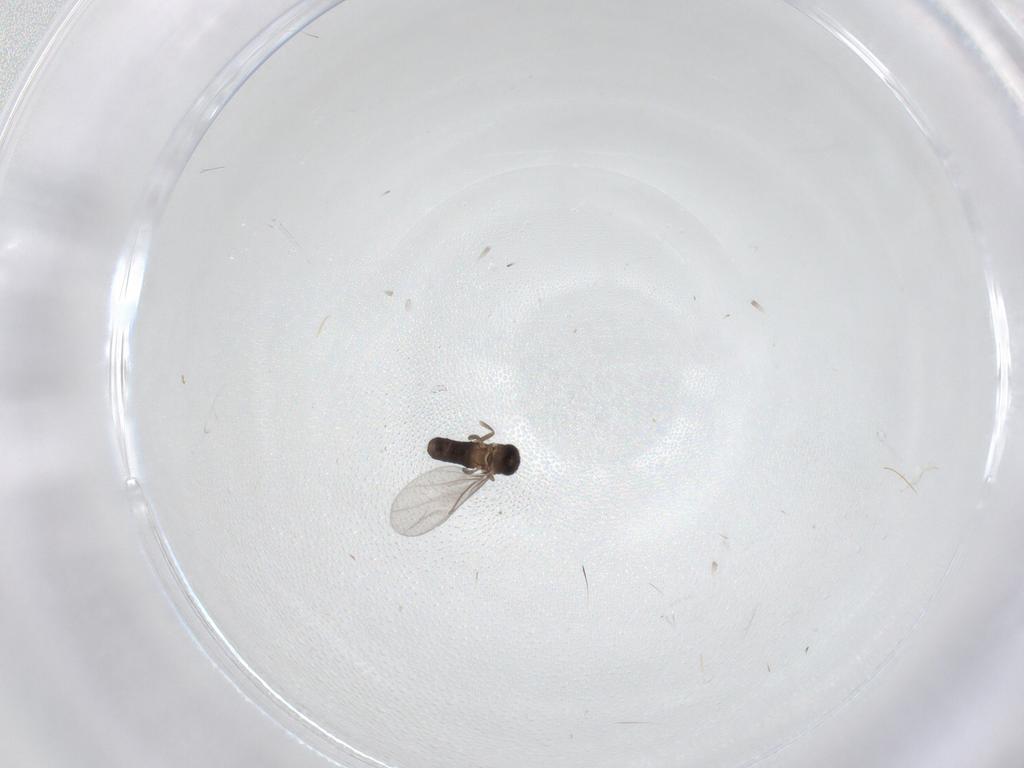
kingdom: Animalia
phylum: Arthropoda
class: Insecta
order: Diptera
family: Phoridae
